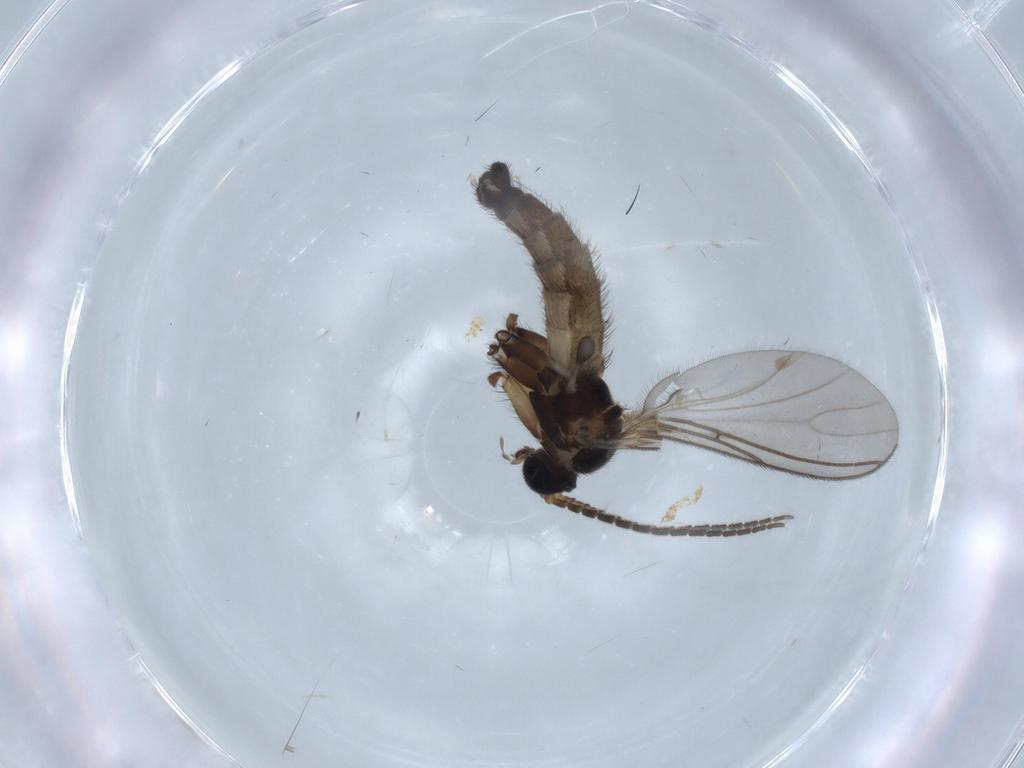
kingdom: Animalia
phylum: Arthropoda
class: Insecta
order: Diptera
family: Sciaridae
